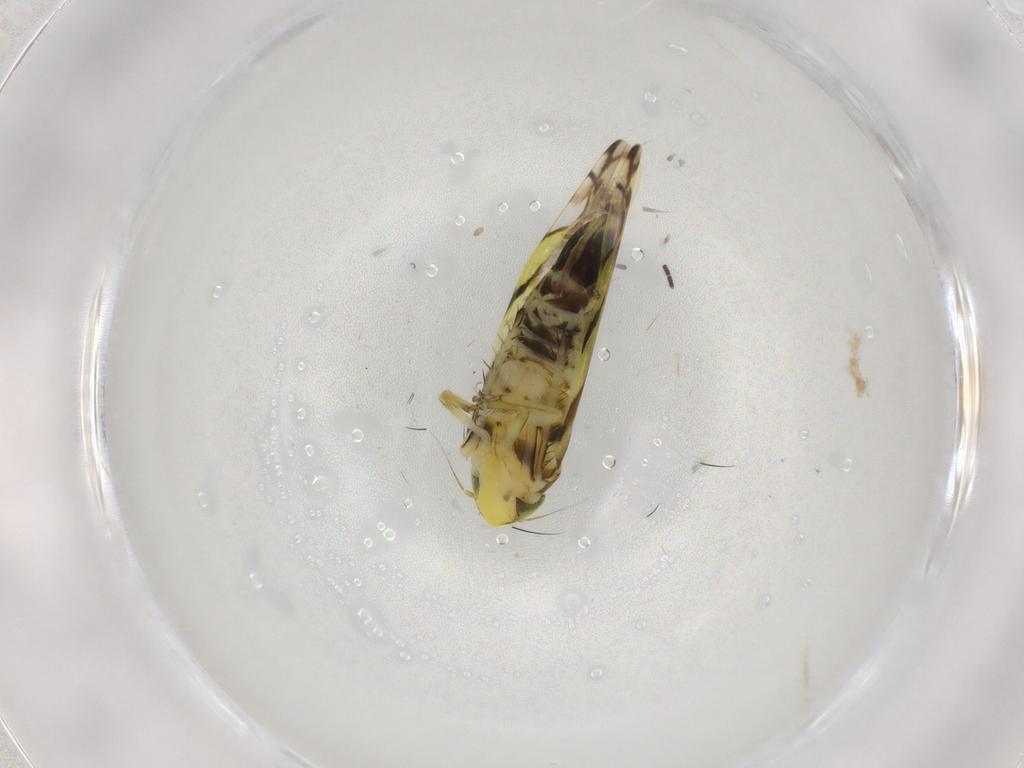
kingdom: Animalia
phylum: Arthropoda
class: Insecta
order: Hemiptera
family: Cicadellidae
